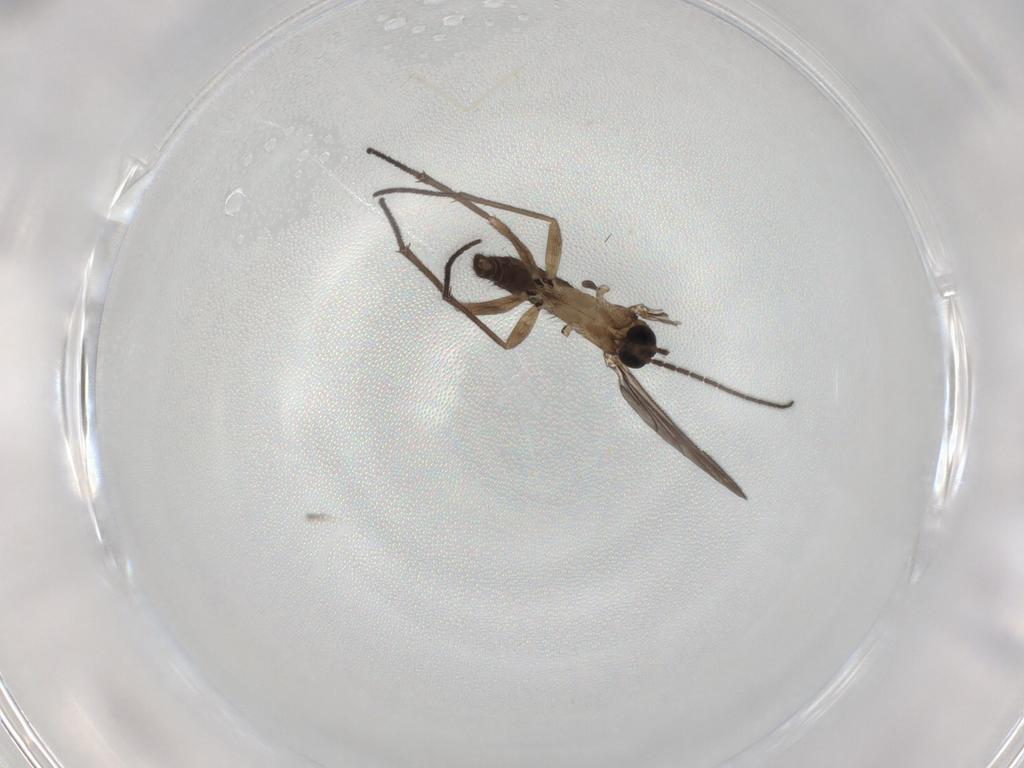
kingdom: Animalia
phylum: Arthropoda
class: Insecta
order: Diptera
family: Cecidomyiidae
